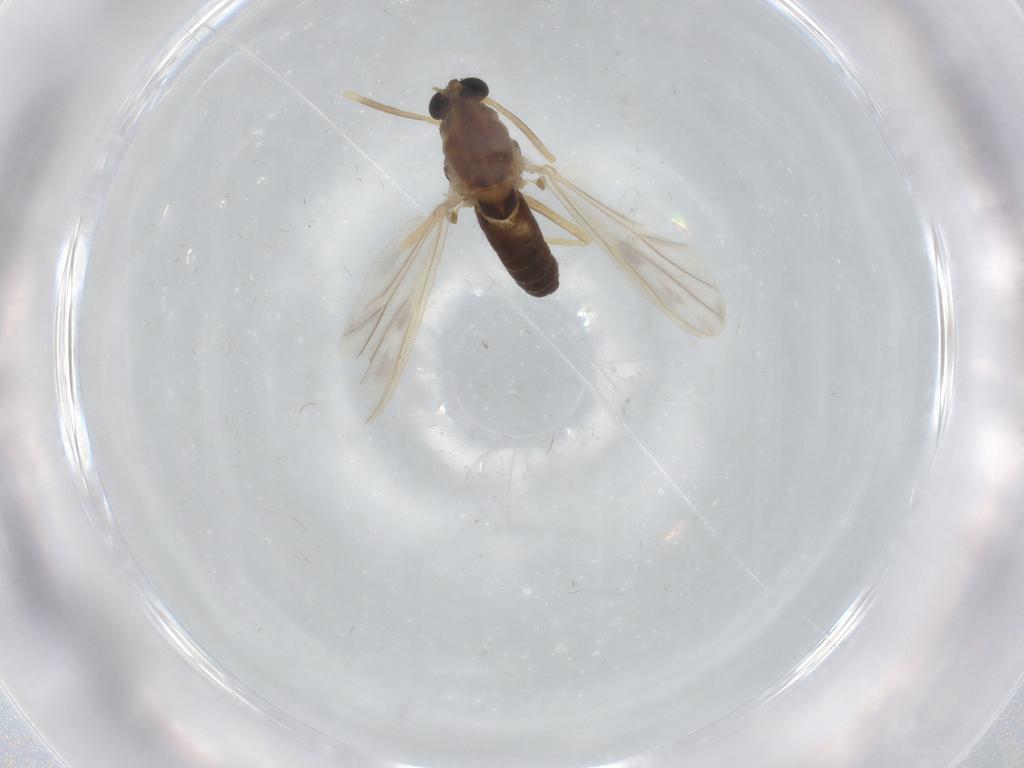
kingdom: Animalia
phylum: Arthropoda
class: Insecta
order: Diptera
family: Chironomidae
